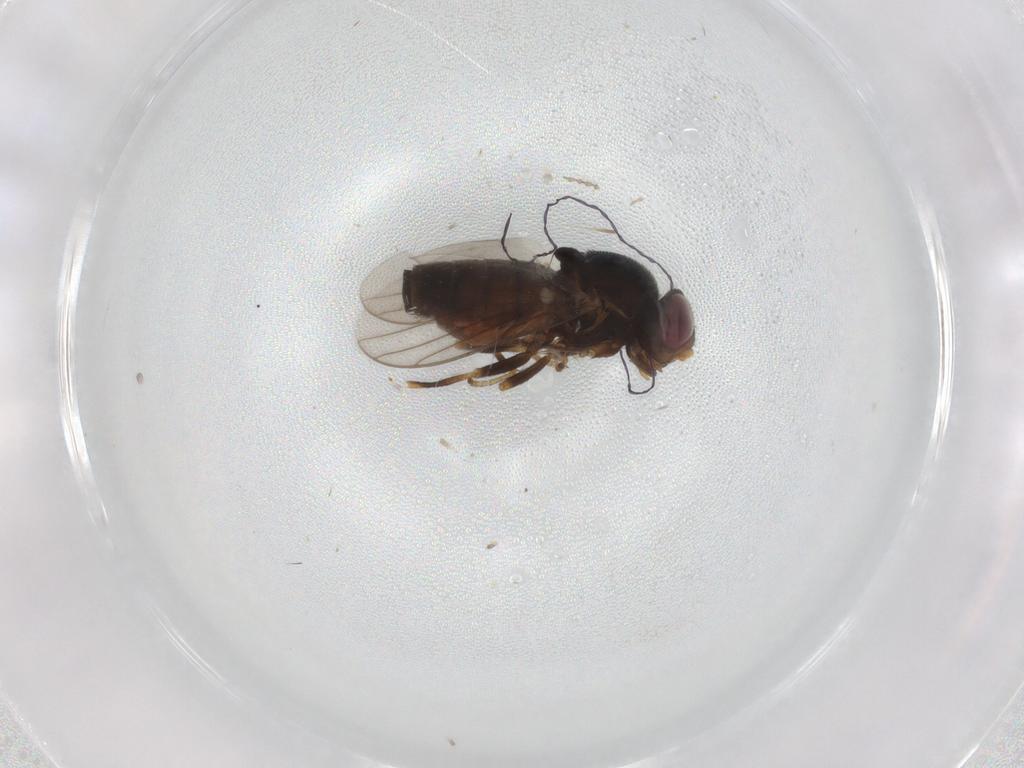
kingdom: Animalia
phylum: Arthropoda
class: Insecta
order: Diptera
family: Chloropidae
